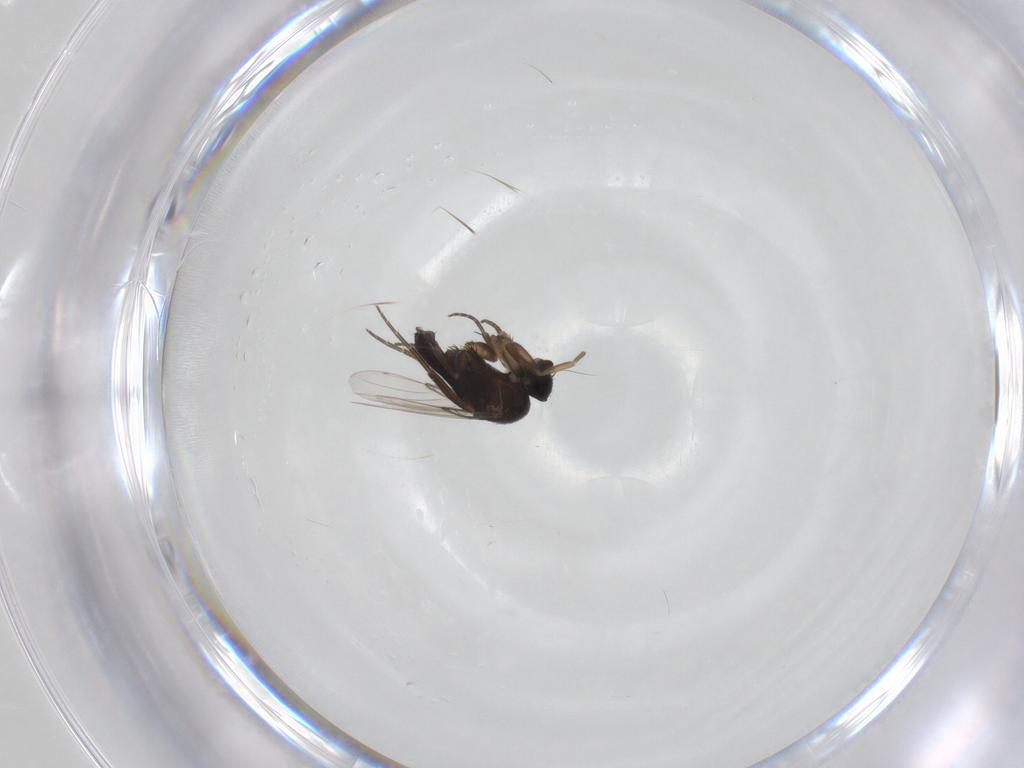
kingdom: Animalia
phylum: Arthropoda
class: Insecta
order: Diptera
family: Phoridae
